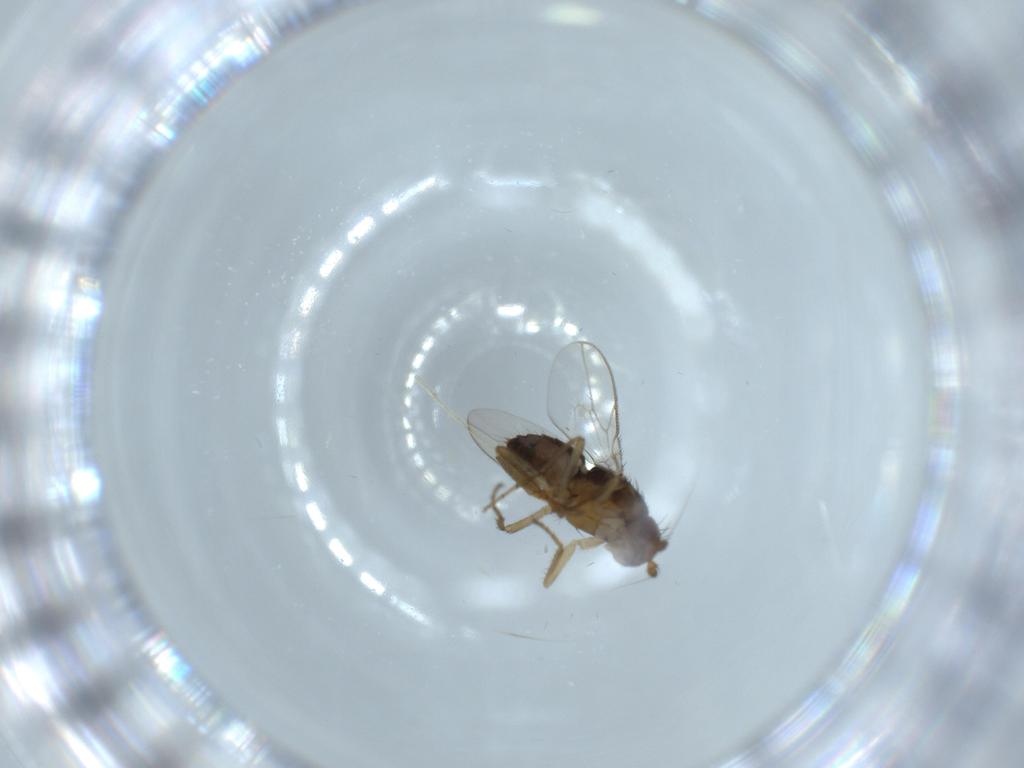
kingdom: Animalia
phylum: Arthropoda
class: Insecta
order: Diptera
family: Sphaeroceridae
